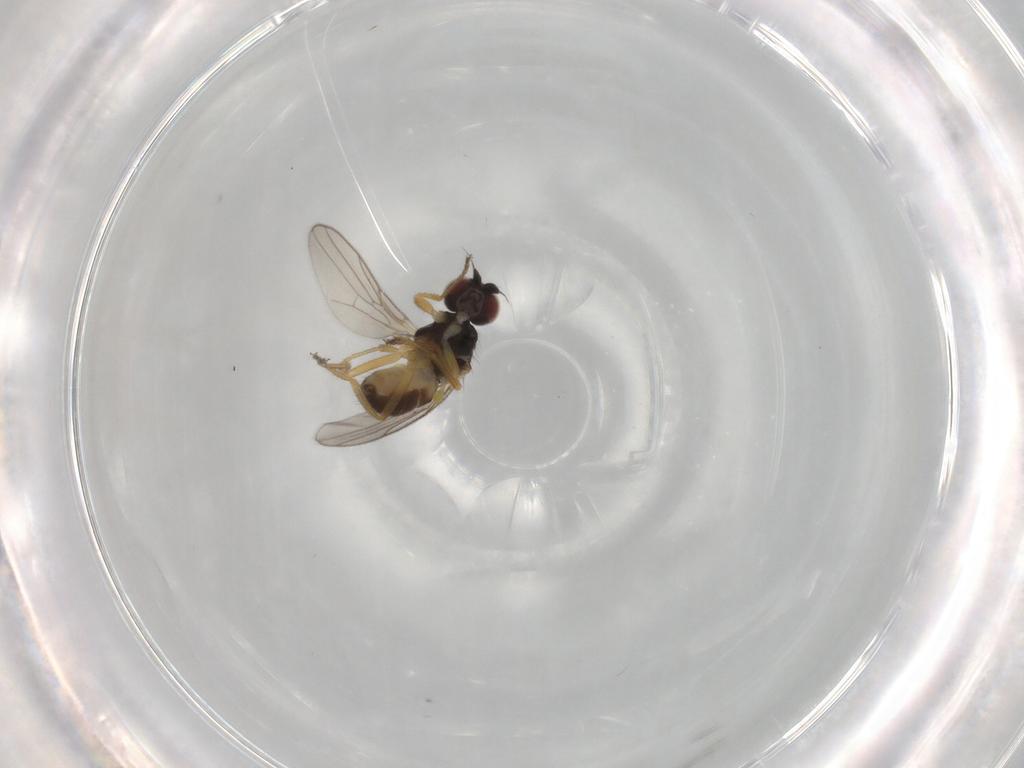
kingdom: Animalia
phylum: Arthropoda
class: Insecta
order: Diptera
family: Chloropidae
